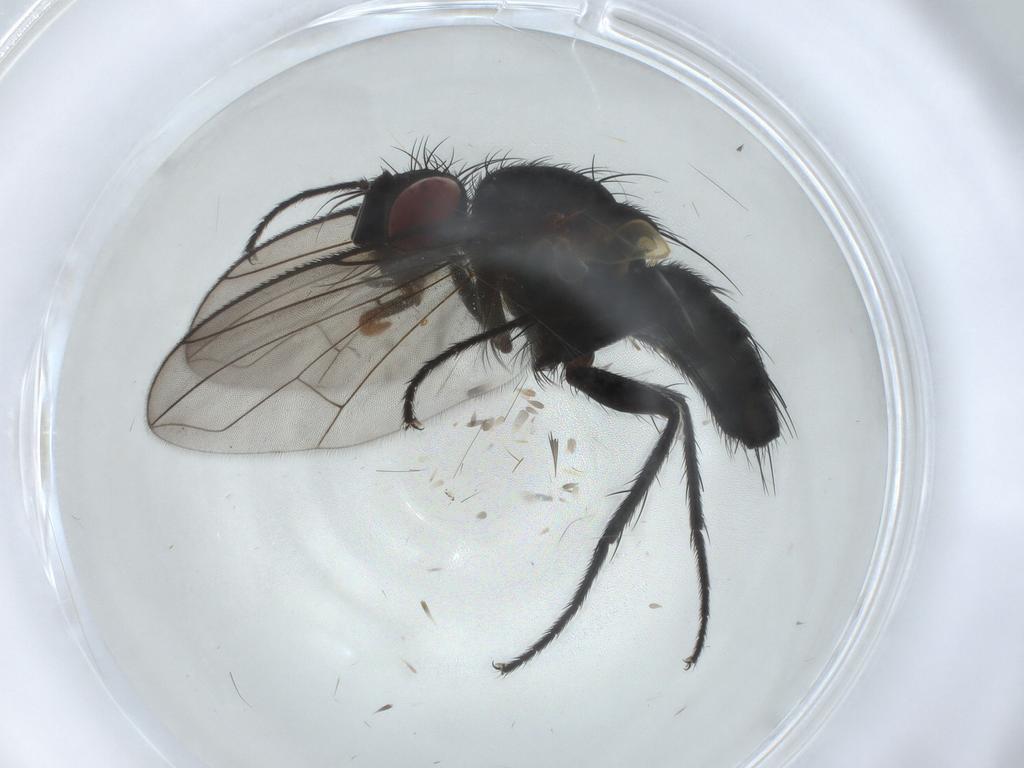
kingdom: Animalia
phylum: Arthropoda
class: Insecta
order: Diptera
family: Tachinidae
